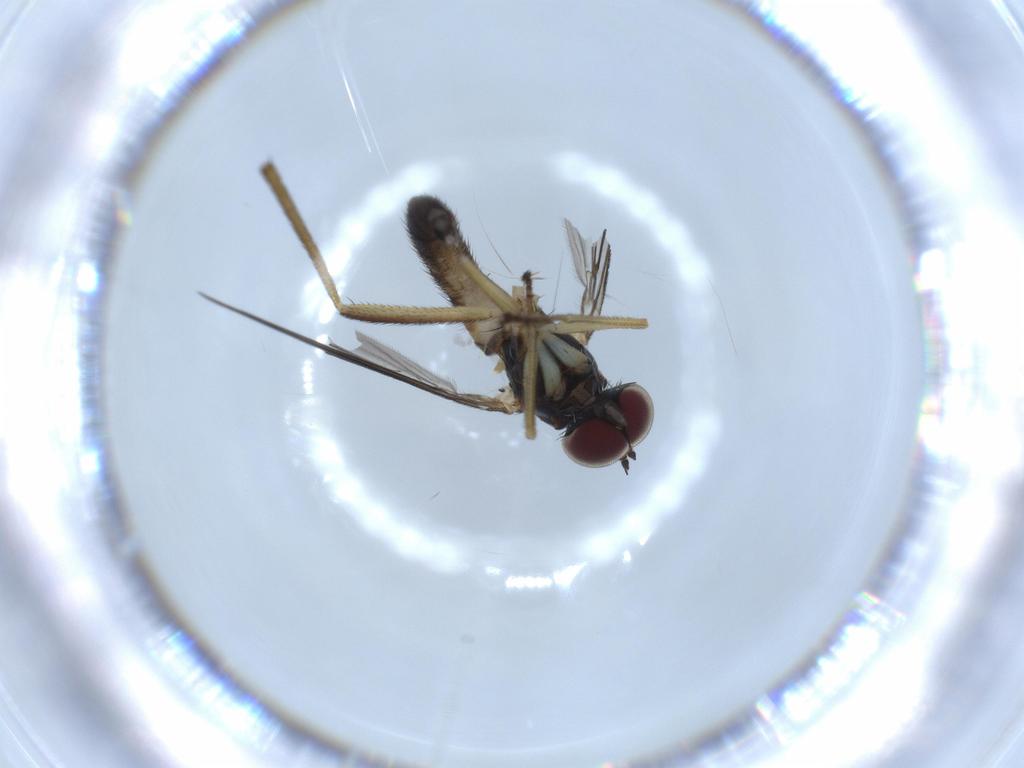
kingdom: Animalia
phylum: Arthropoda
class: Insecta
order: Diptera
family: Dolichopodidae
